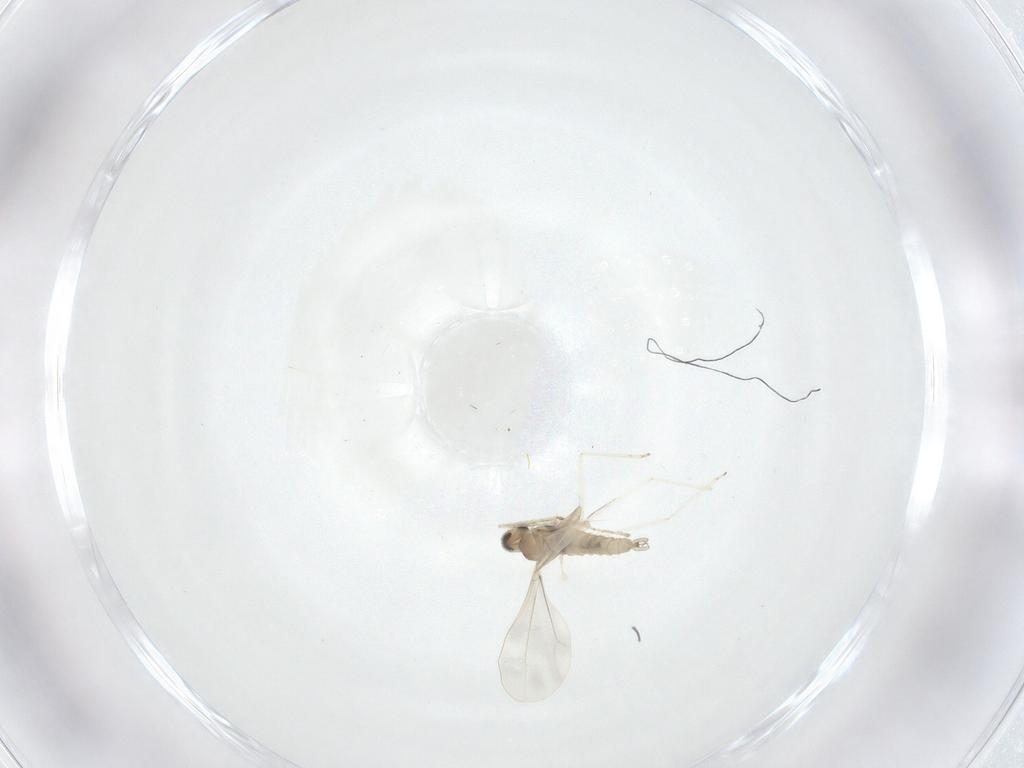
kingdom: Animalia
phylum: Arthropoda
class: Insecta
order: Diptera
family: Cecidomyiidae
